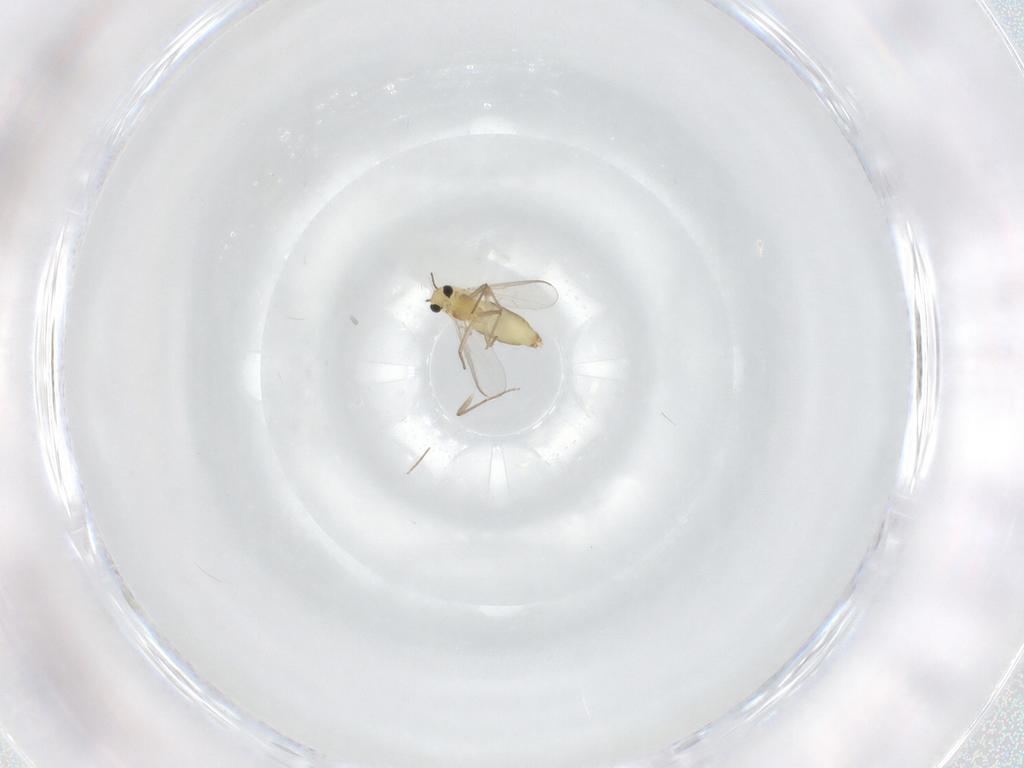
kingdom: Animalia
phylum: Arthropoda
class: Insecta
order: Diptera
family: Chironomidae
